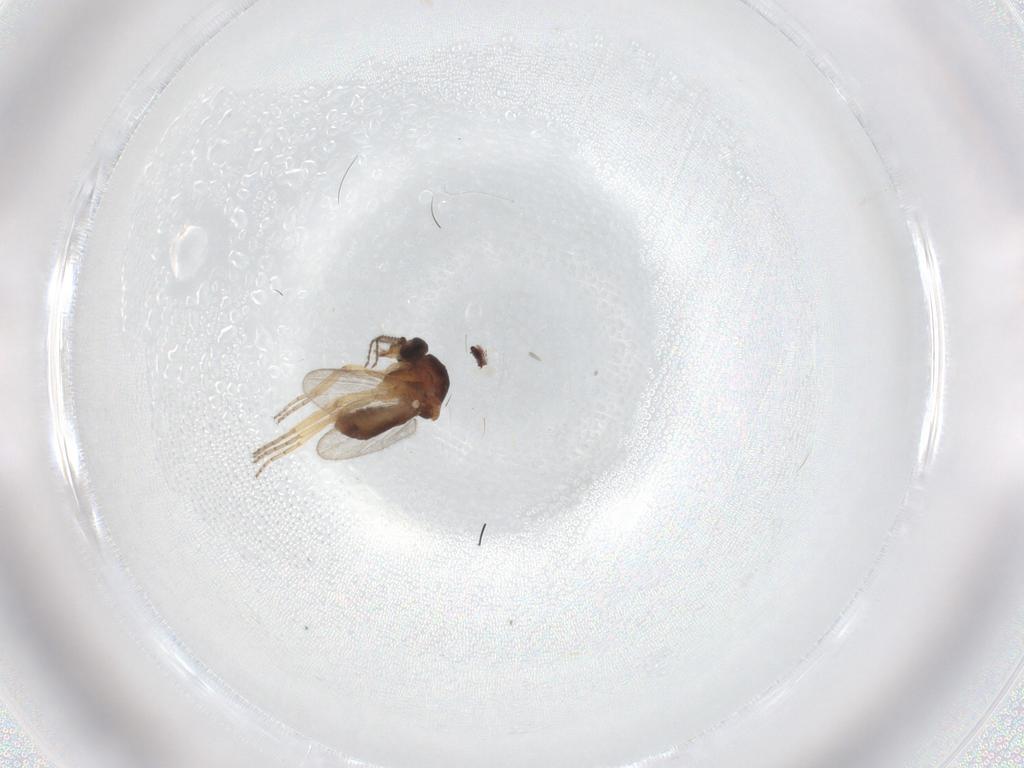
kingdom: Animalia
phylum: Arthropoda
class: Insecta
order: Diptera
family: Ceratopogonidae
